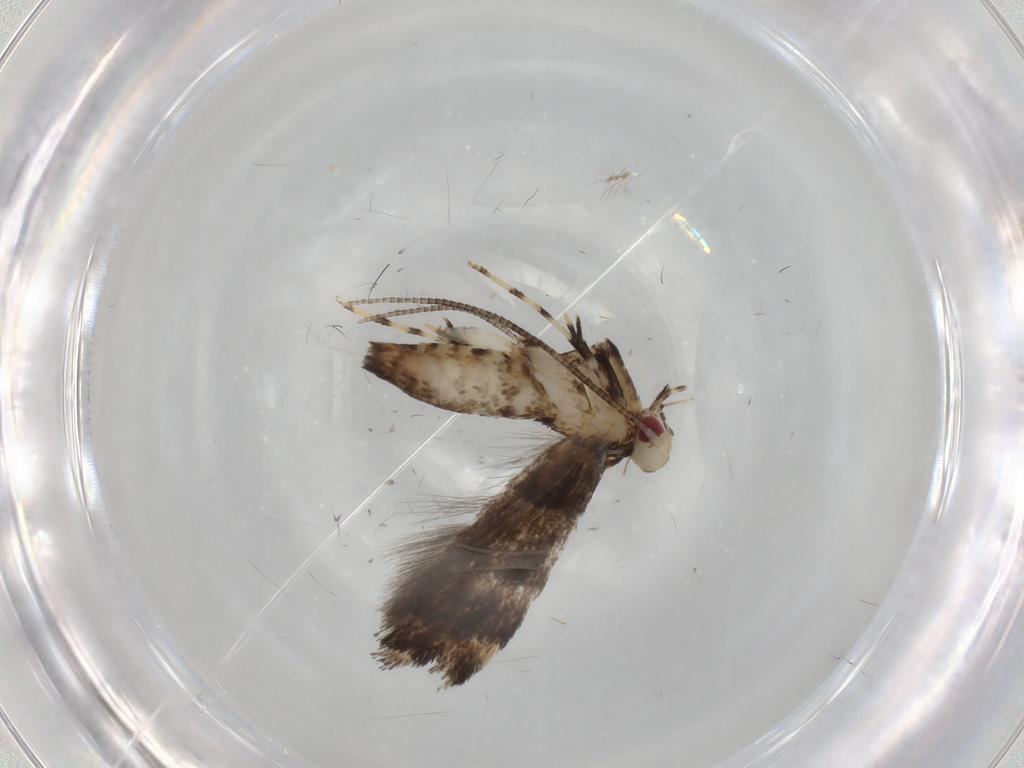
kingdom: Animalia
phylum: Arthropoda
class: Insecta
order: Lepidoptera
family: Gracillariidae
